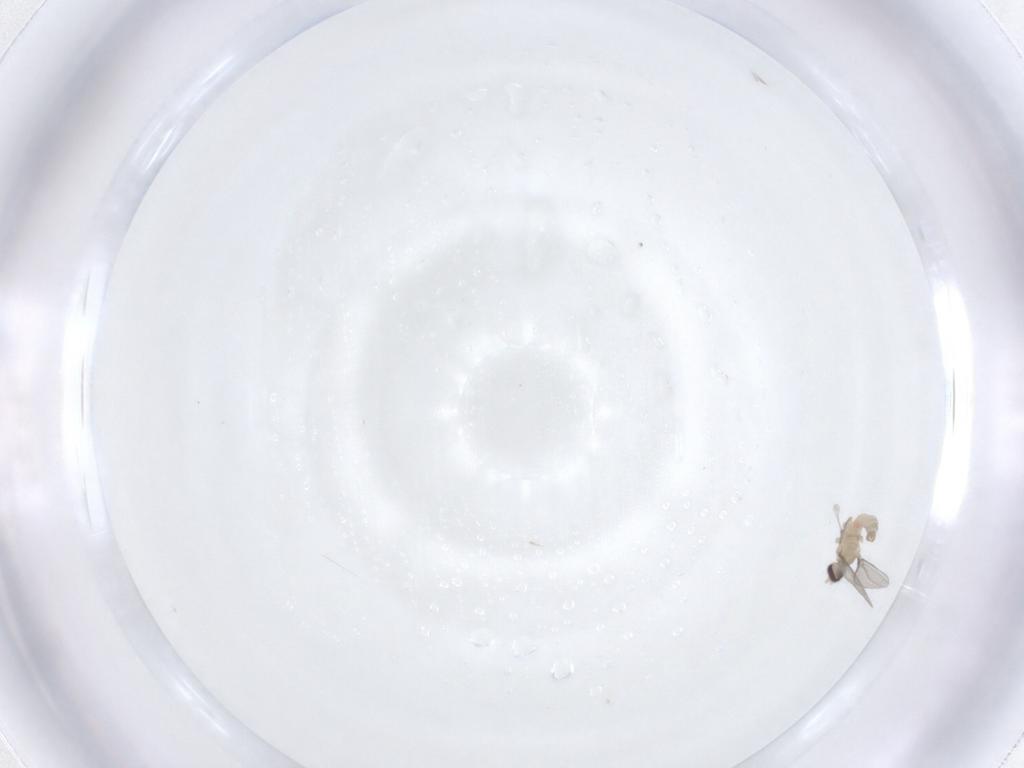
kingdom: Animalia
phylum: Arthropoda
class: Insecta
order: Diptera
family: Cecidomyiidae
